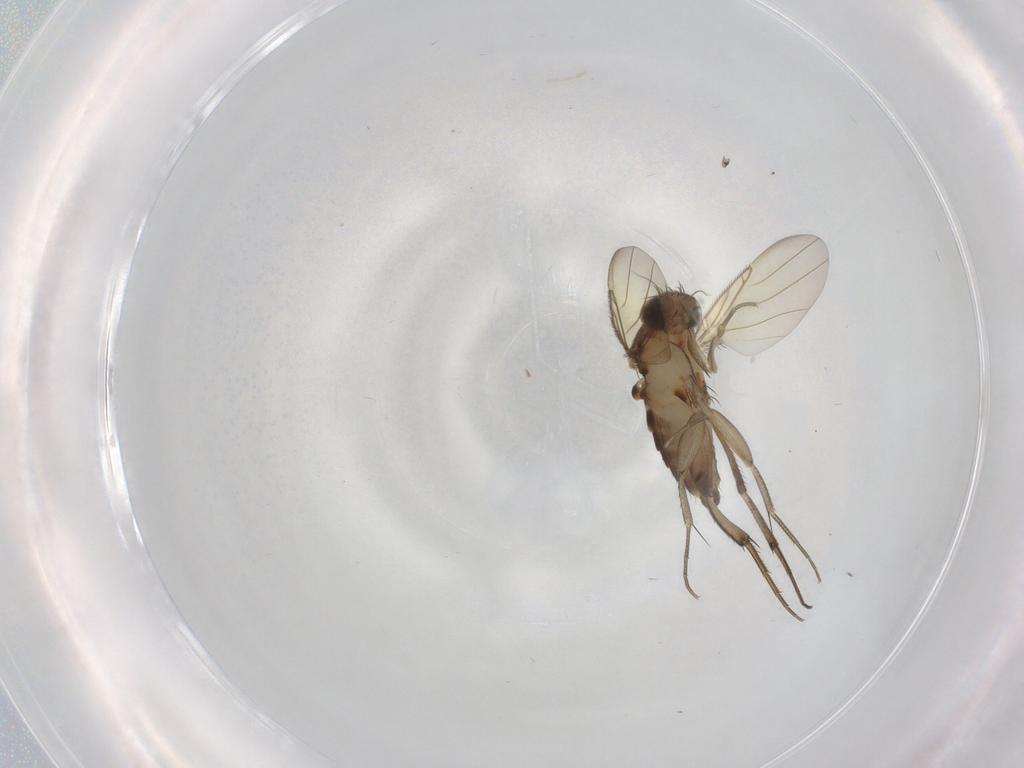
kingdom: Animalia
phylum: Arthropoda
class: Insecta
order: Diptera
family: Phoridae
